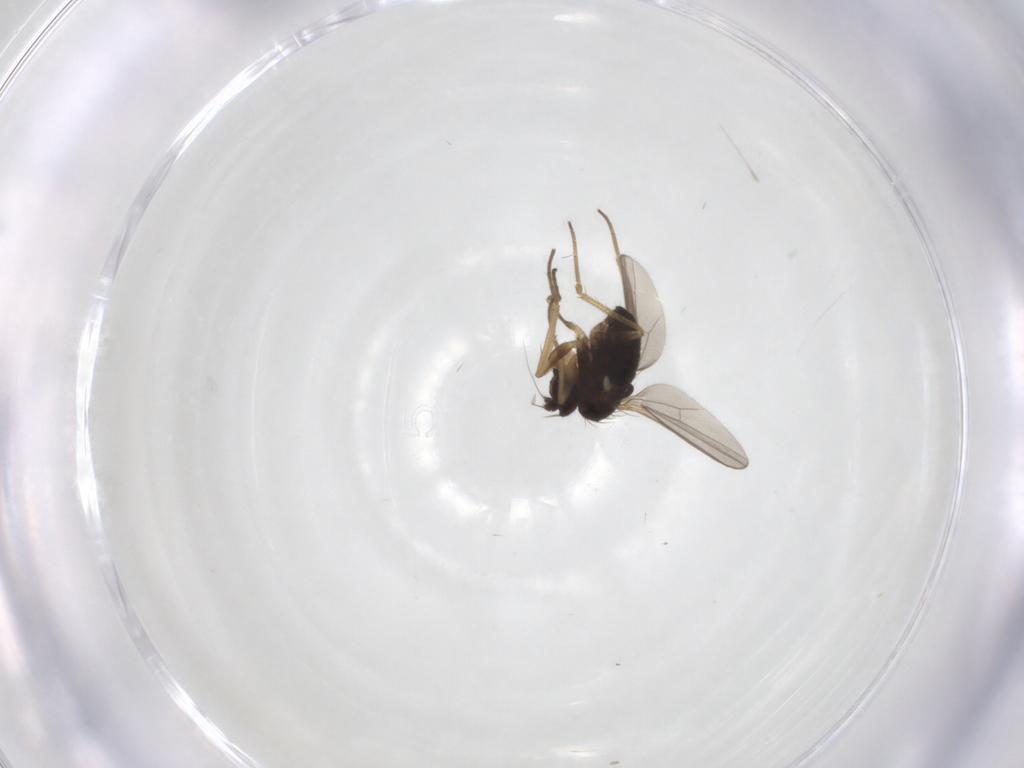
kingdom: Animalia
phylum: Arthropoda
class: Insecta
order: Diptera
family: Dolichopodidae
